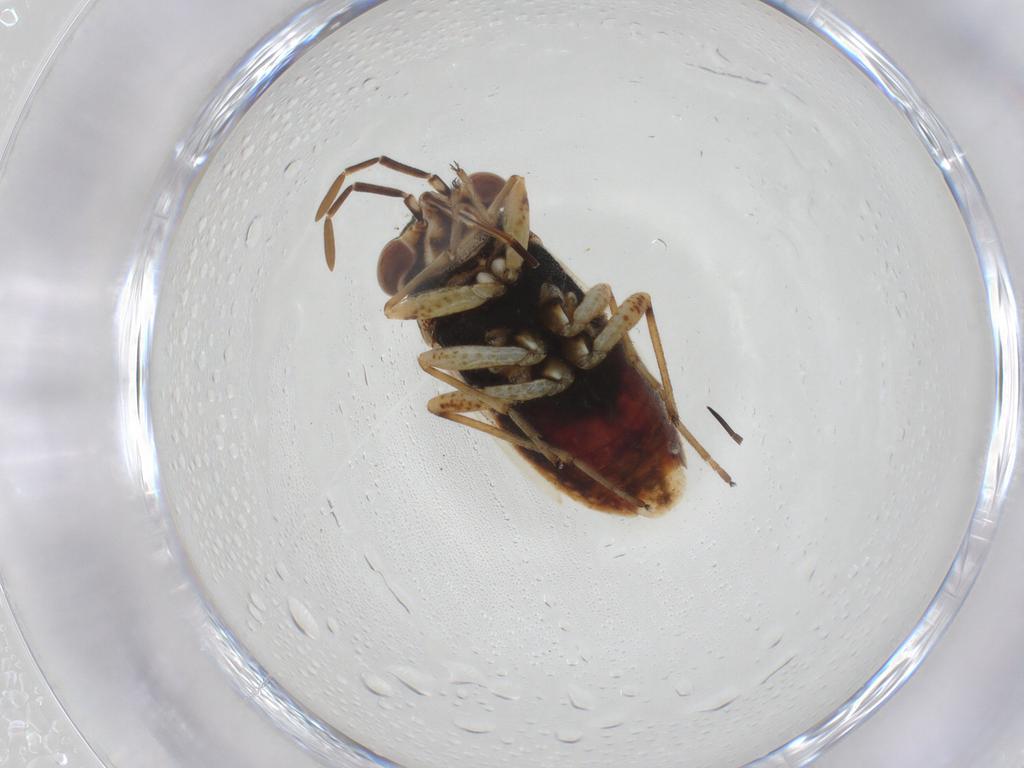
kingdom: Animalia
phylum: Arthropoda
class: Insecta
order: Hemiptera
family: Geocoridae
